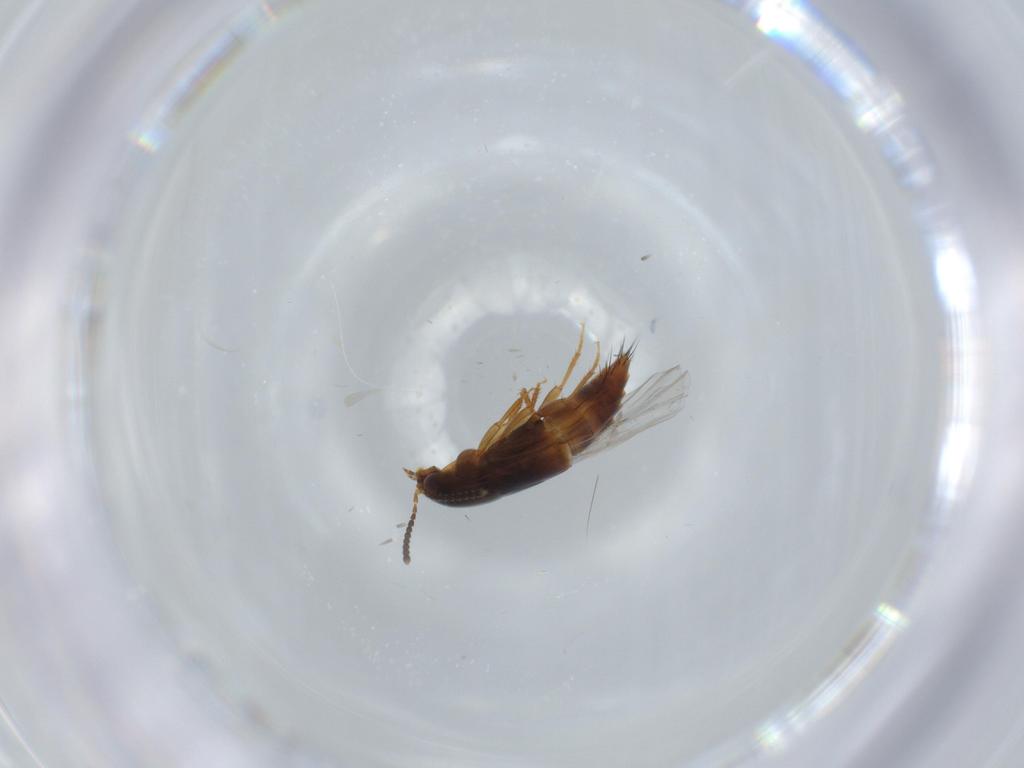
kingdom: Animalia
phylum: Arthropoda
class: Insecta
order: Coleoptera
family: Staphylinidae
